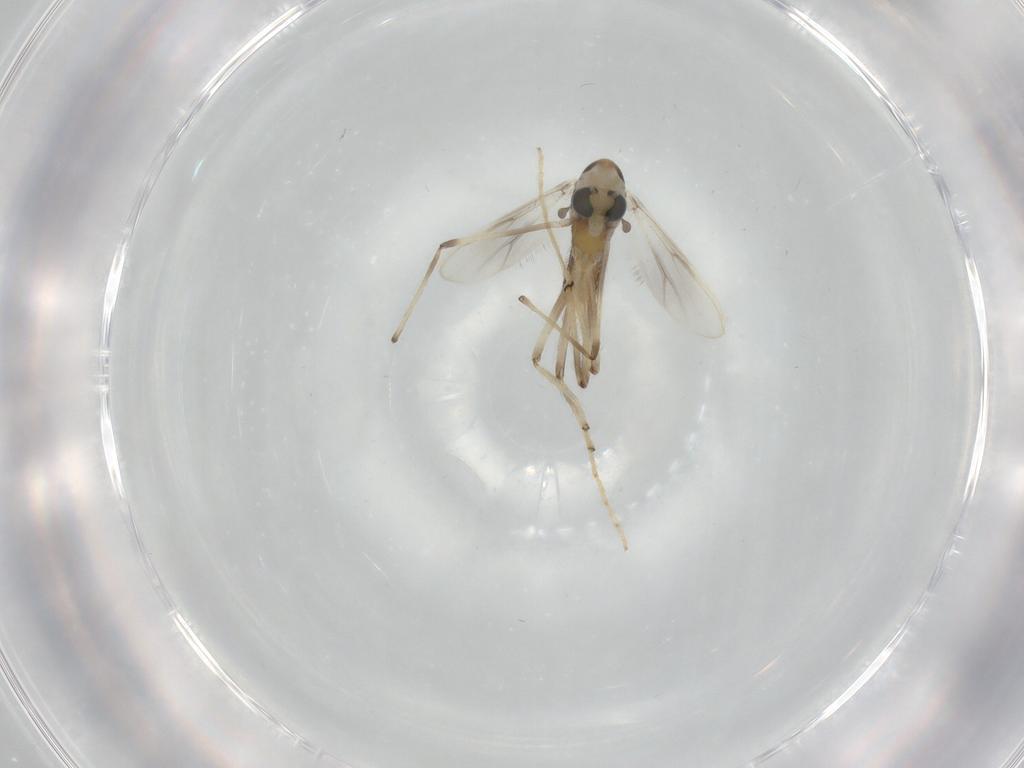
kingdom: Animalia
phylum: Arthropoda
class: Insecta
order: Diptera
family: Chironomidae
